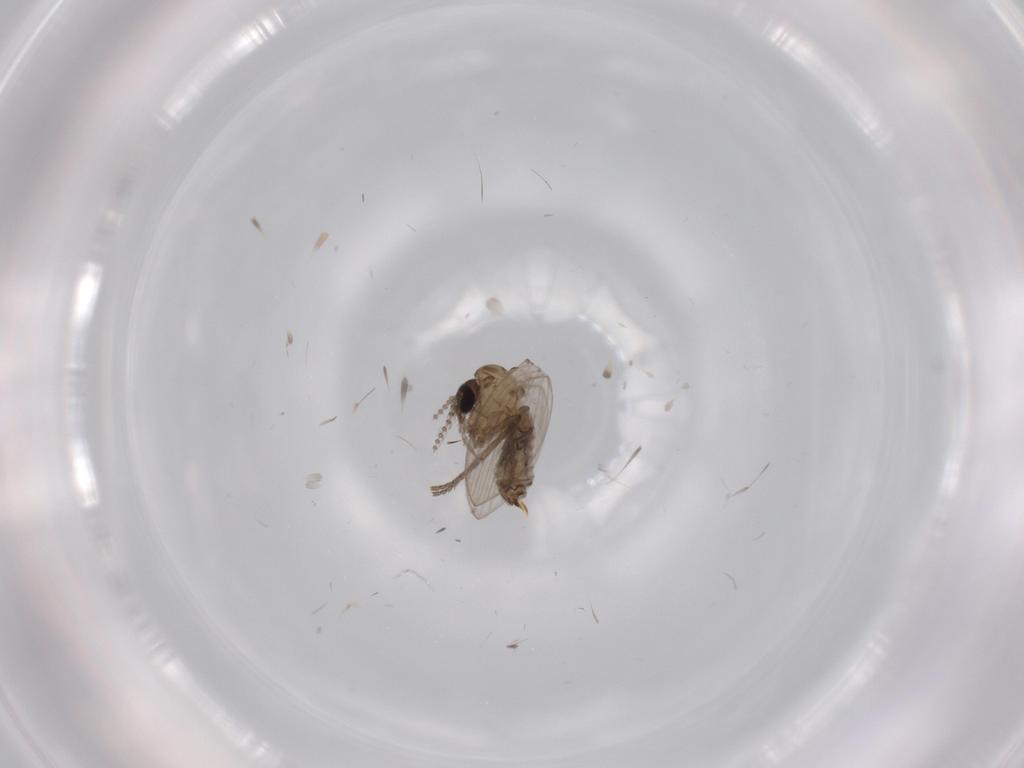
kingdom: Animalia
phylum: Arthropoda
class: Insecta
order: Diptera
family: Psychodidae
